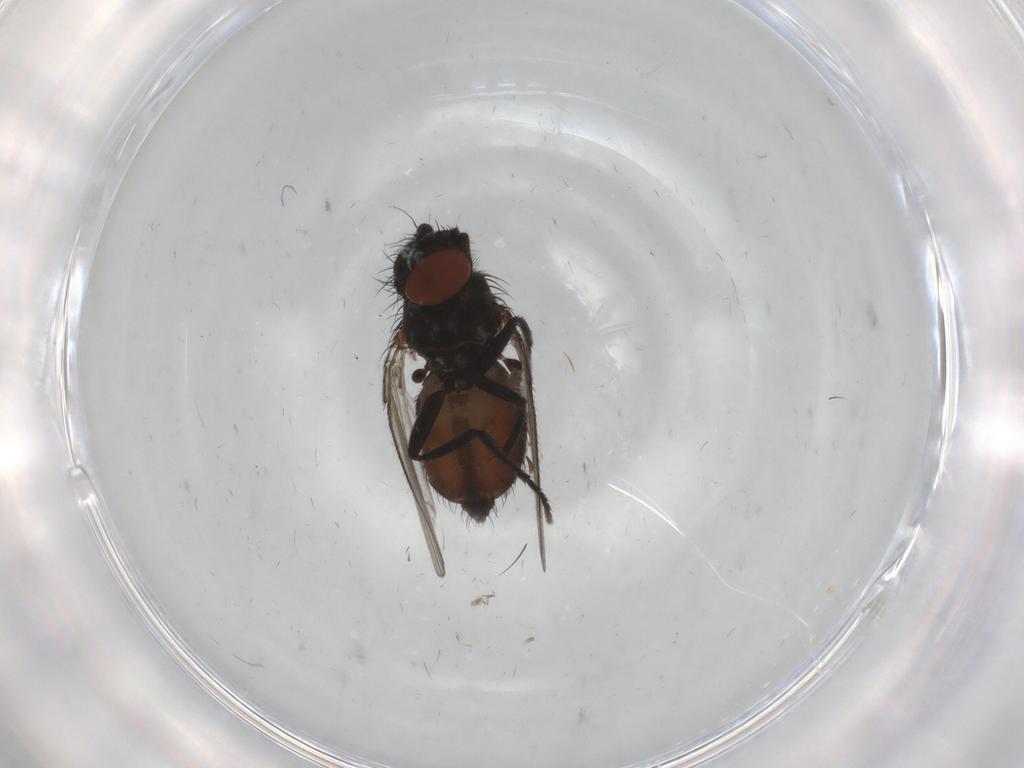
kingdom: Animalia
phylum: Arthropoda
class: Insecta
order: Diptera
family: Milichiidae
